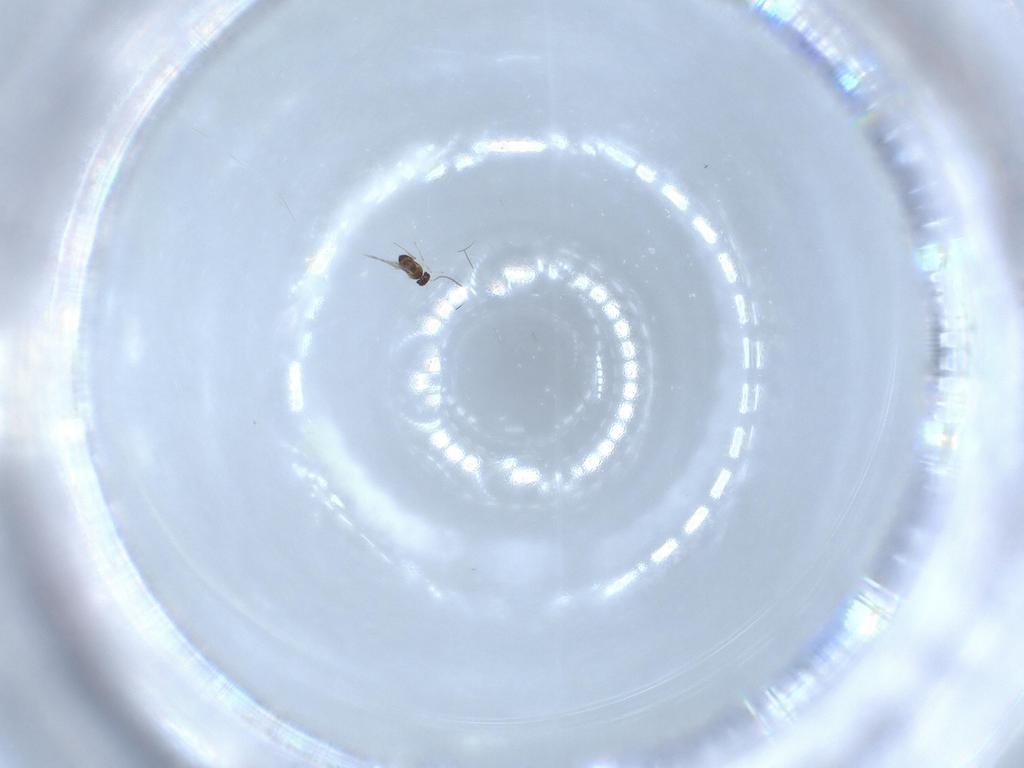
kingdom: Animalia
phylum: Arthropoda
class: Insecta
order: Hymenoptera
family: Mymaridae
